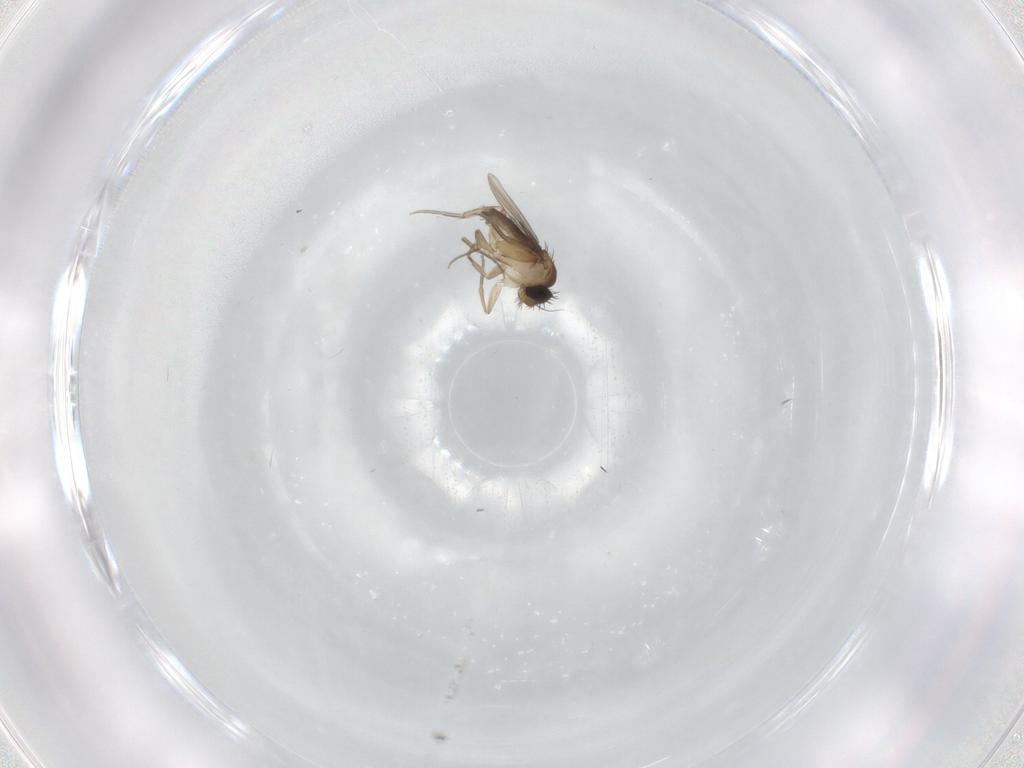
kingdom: Animalia
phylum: Arthropoda
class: Insecta
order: Diptera
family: Phoridae
